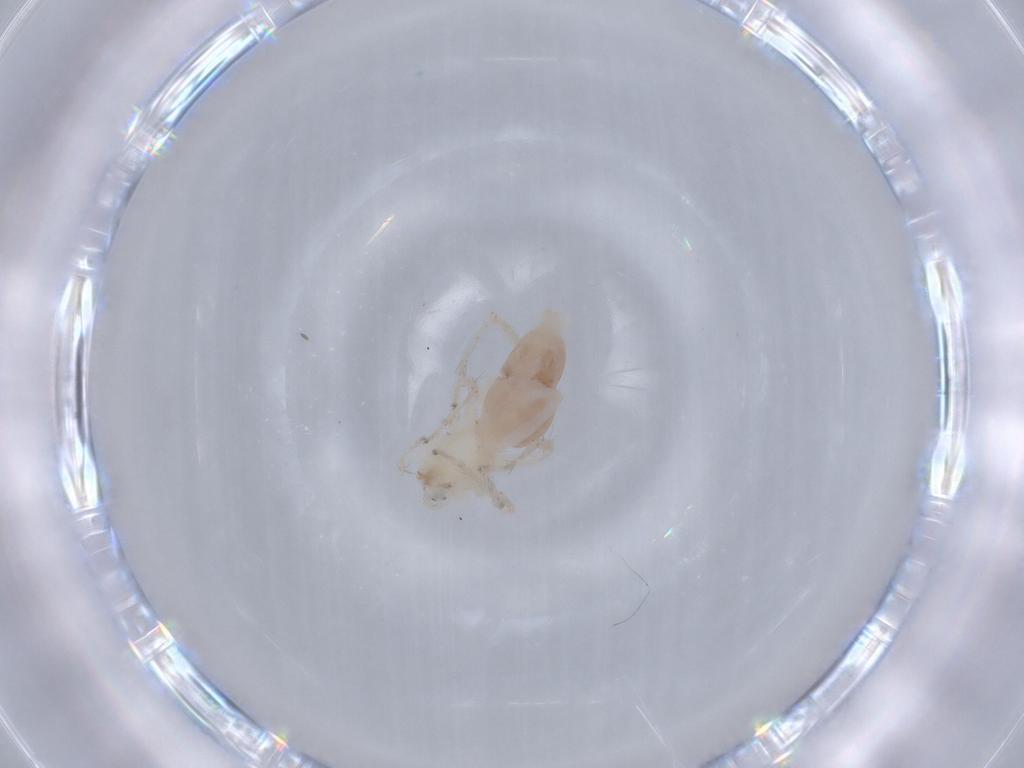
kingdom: Animalia
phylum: Arthropoda
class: Arachnida
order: Araneae
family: Anyphaenidae
